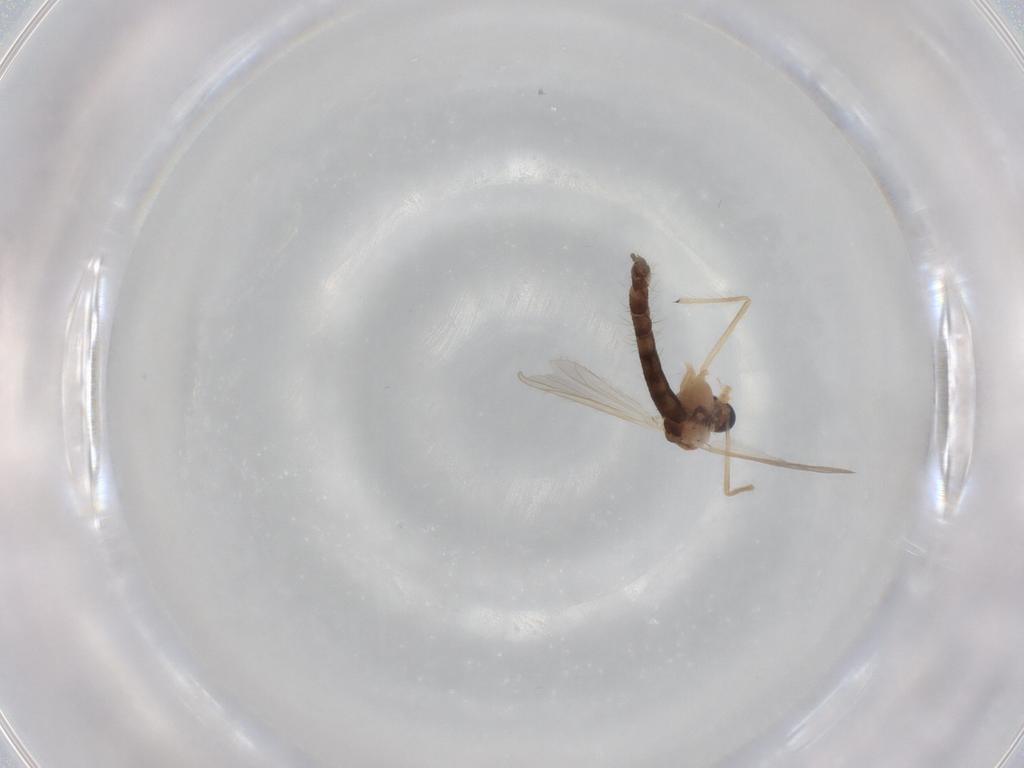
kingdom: Animalia
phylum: Arthropoda
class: Insecta
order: Diptera
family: Chironomidae
